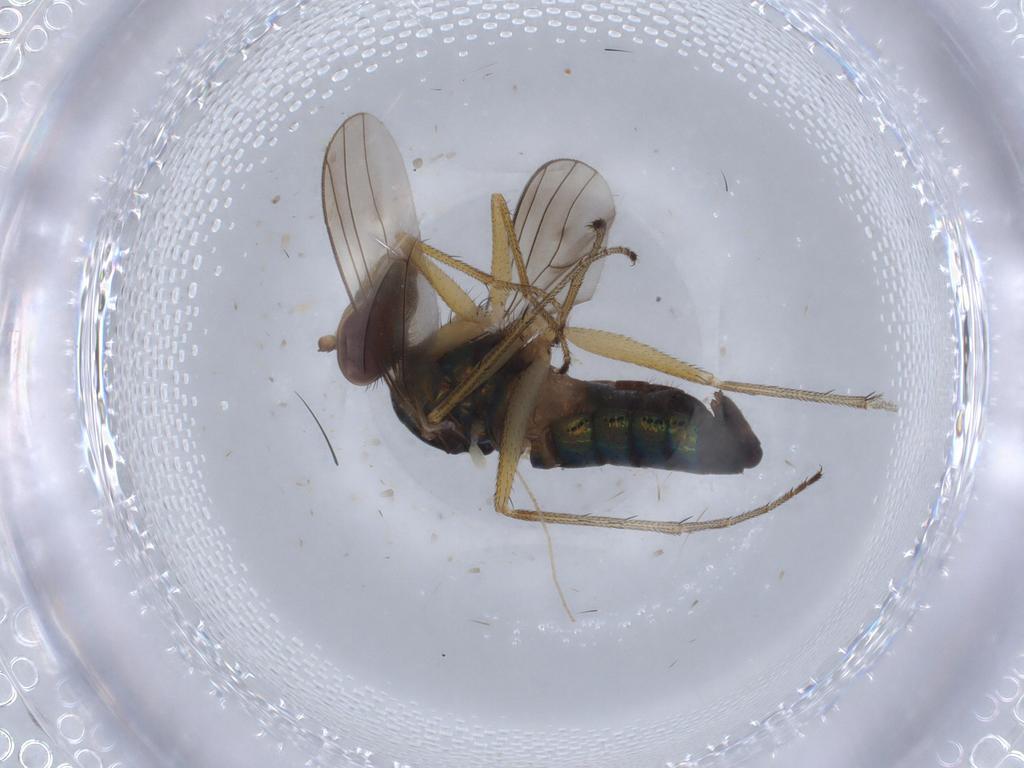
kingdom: Animalia
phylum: Arthropoda
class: Insecta
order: Diptera
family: Dolichopodidae
